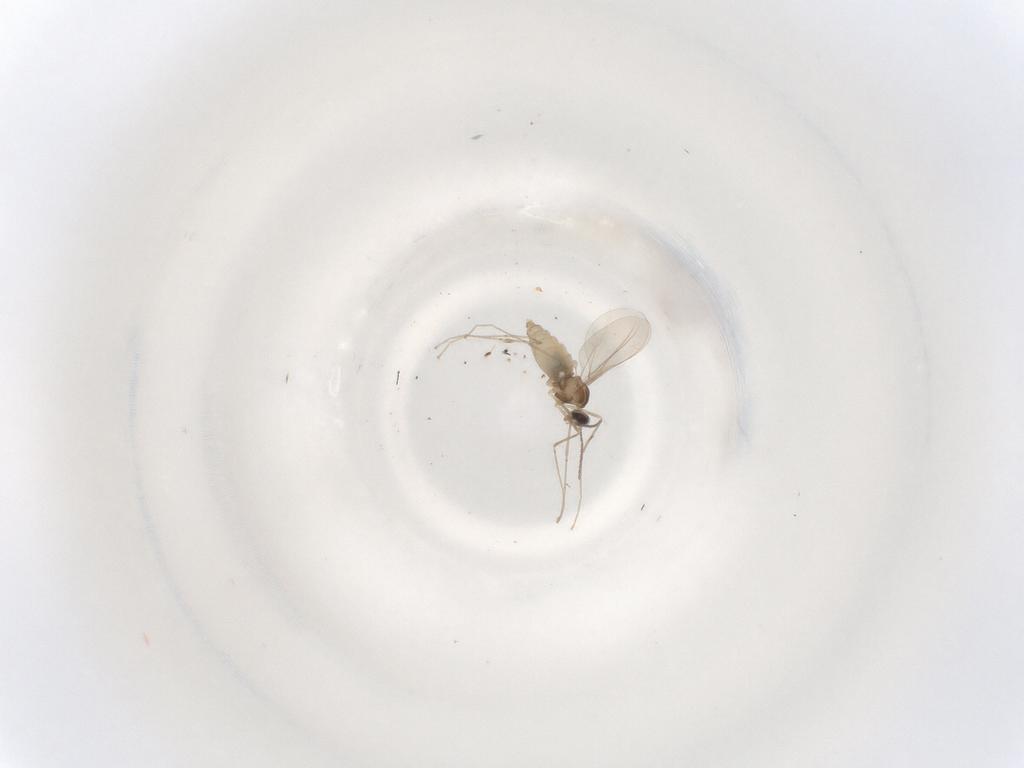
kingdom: Animalia
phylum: Arthropoda
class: Insecta
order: Diptera
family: Cecidomyiidae
